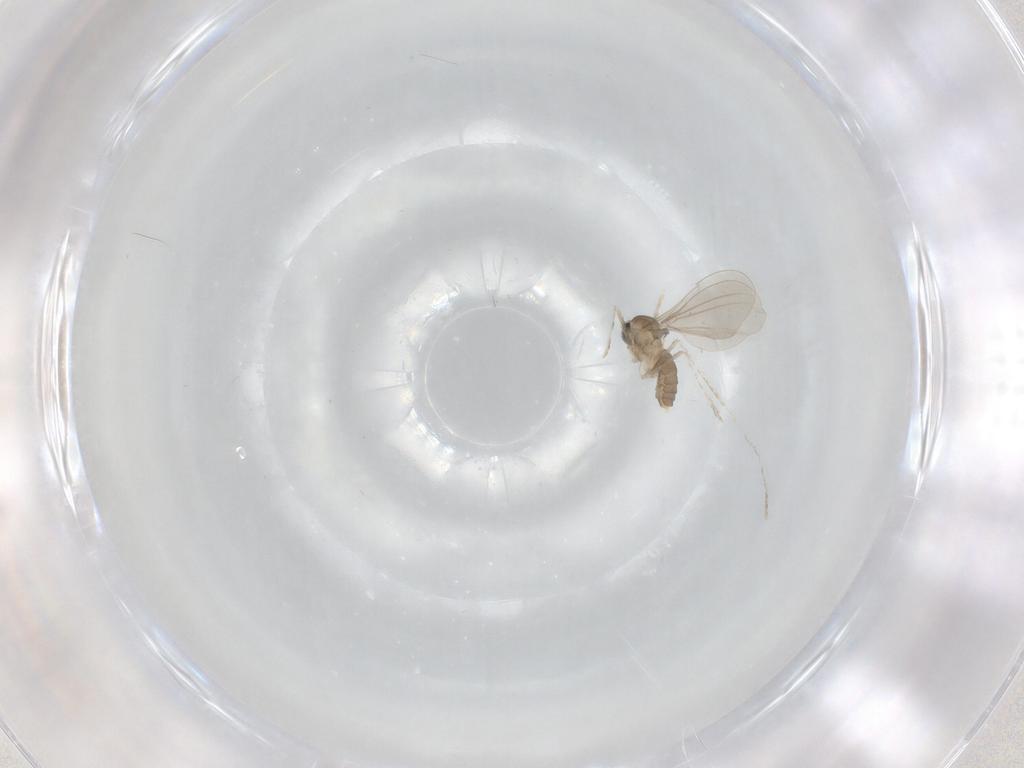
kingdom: Animalia
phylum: Arthropoda
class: Insecta
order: Diptera
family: Cecidomyiidae
